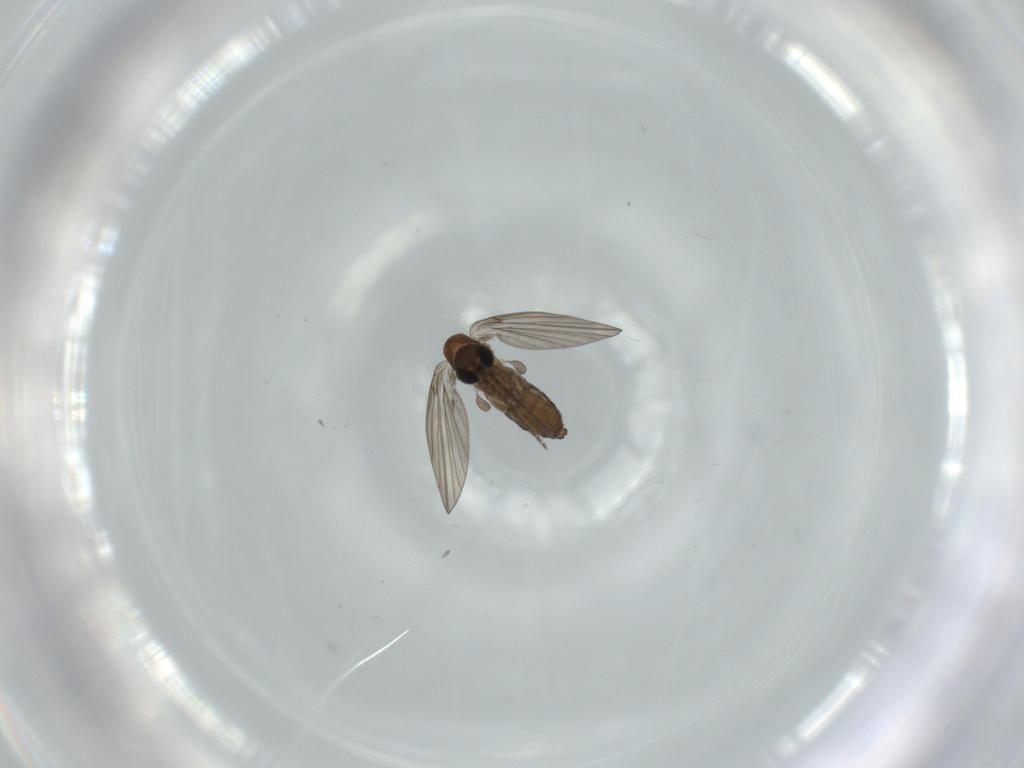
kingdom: Animalia
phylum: Arthropoda
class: Insecta
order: Diptera
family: Psychodidae
